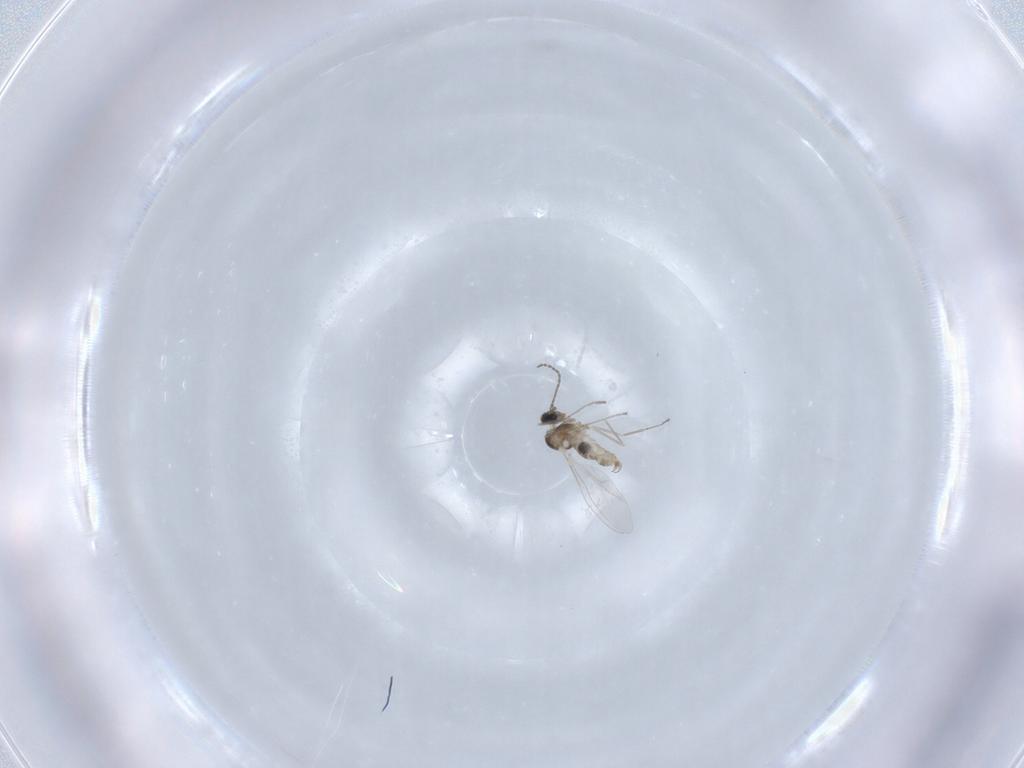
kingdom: Animalia
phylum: Arthropoda
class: Insecta
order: Diptera
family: Cecidomyiidae
